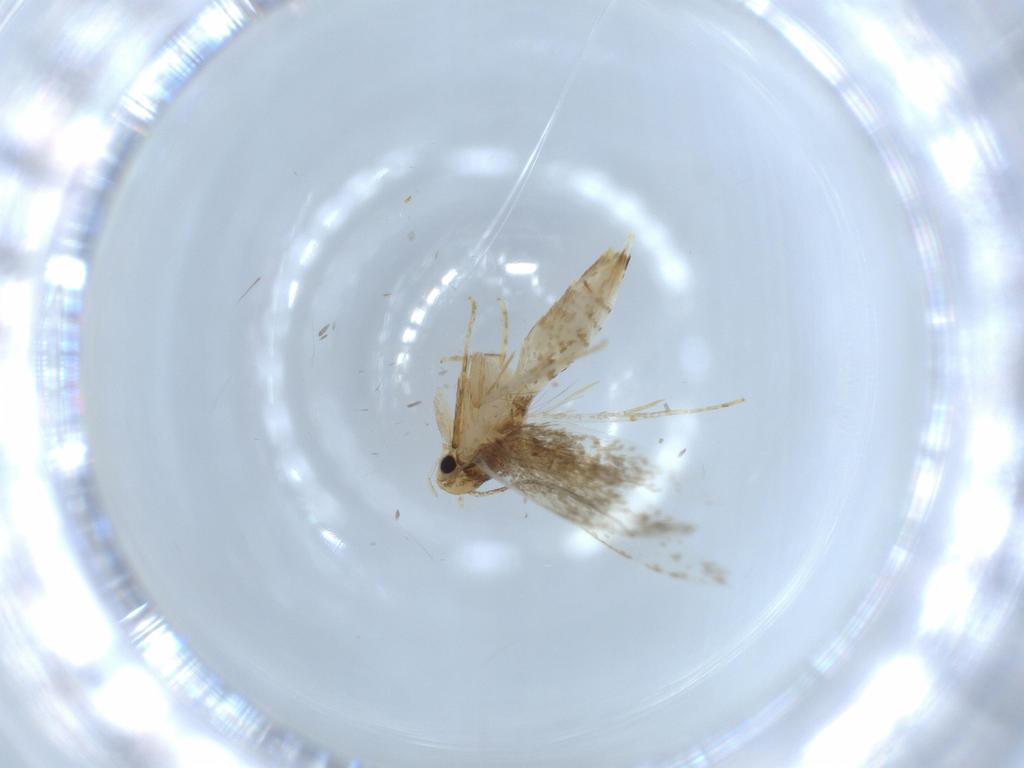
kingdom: Animalia
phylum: Arthropoda
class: Insecta
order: Lepidoptera
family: Tineidae
